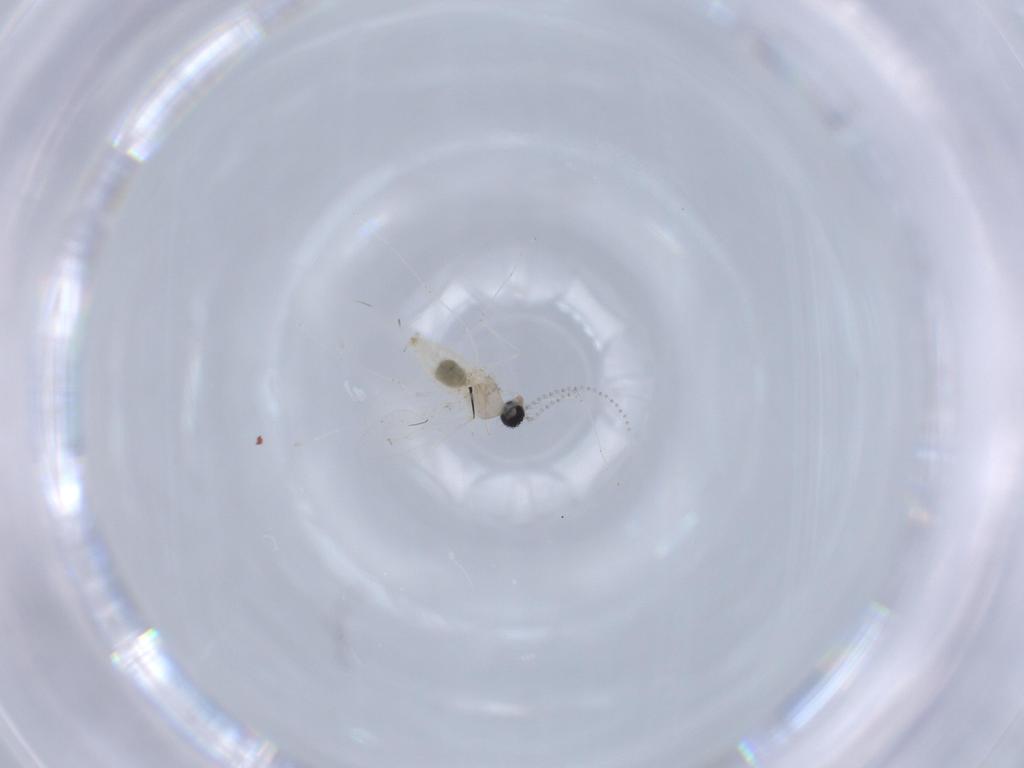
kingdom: Animalia
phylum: Arthropoda
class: Insecta
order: Diptera
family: Cecidomyiidae
